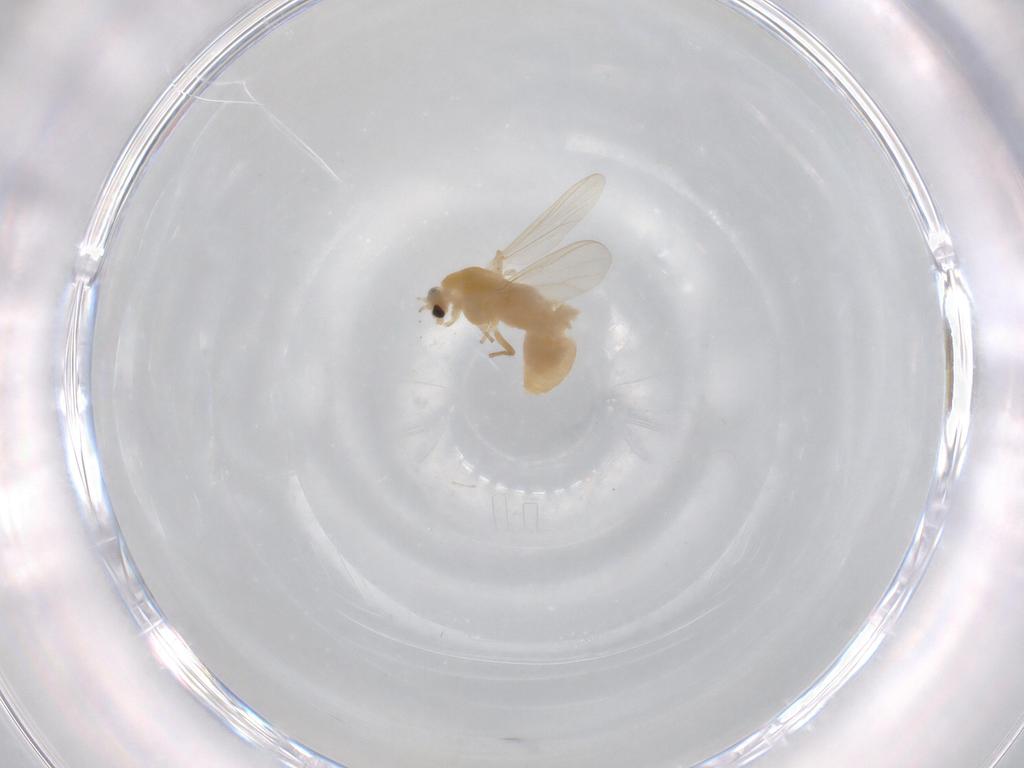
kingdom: Animalia
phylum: Arthropoda
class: Insecta
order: Diptera
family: Chironomidae
